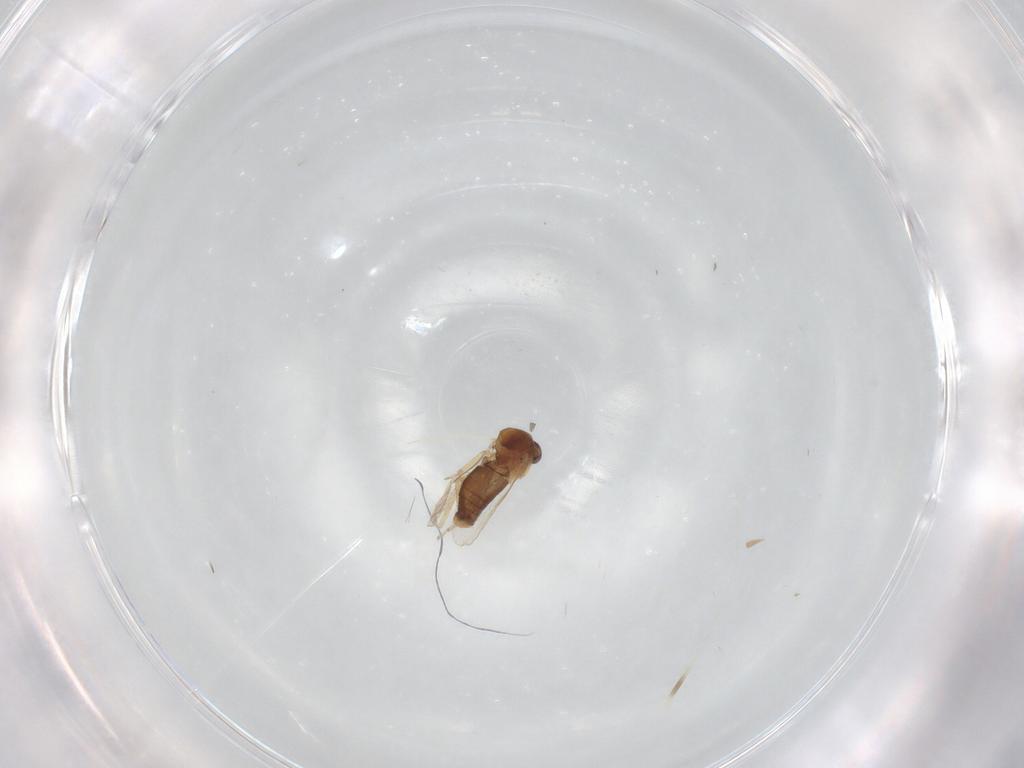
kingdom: Animalia
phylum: Arthropoda
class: Insecta
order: Diptera
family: Ceratopogonidae
